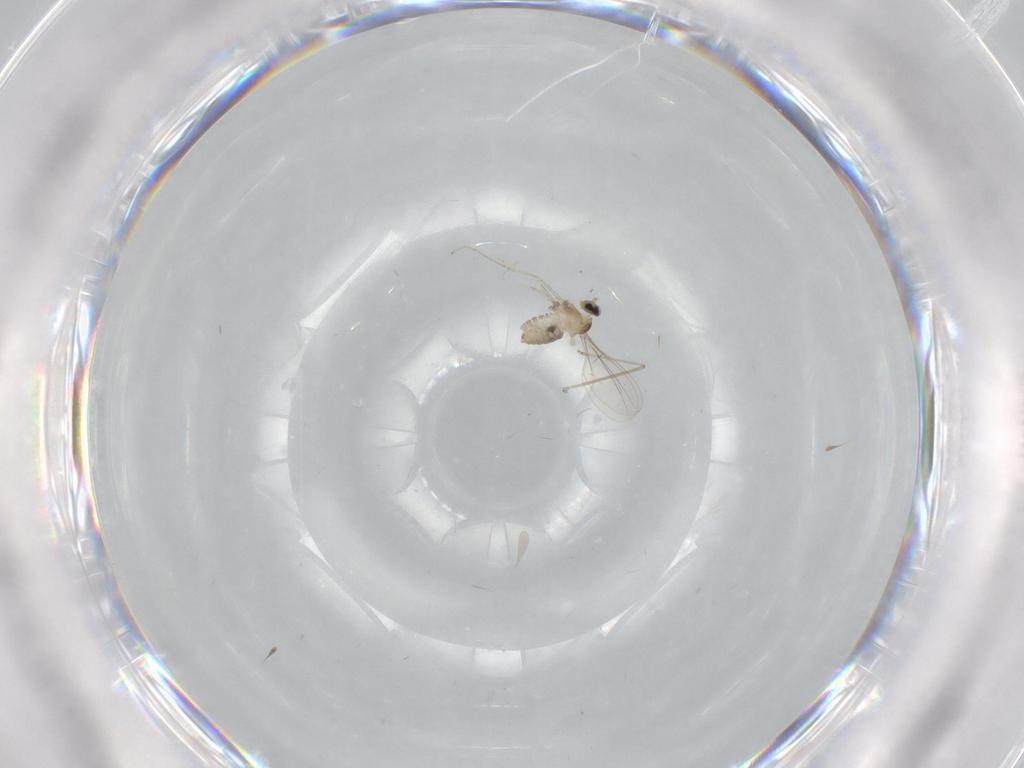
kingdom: Animalia
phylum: Arthropoda
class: Insecta
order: Diptera
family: Cecidomyiidae
